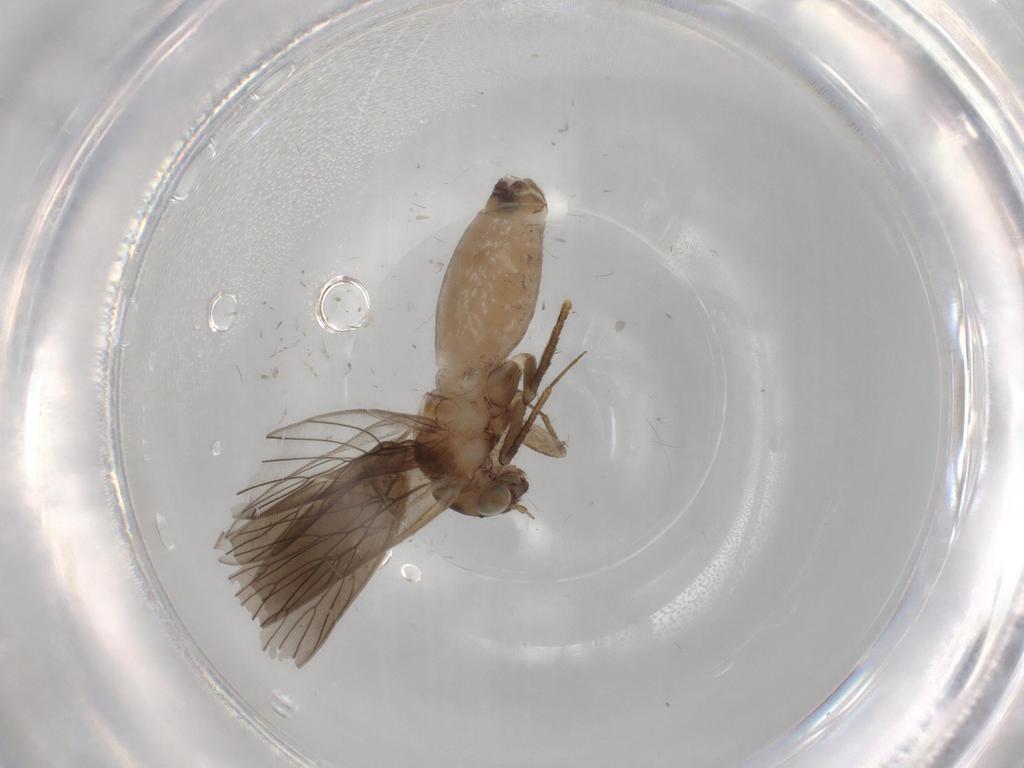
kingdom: Animalia
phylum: Arthropoda
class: Insecta
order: Psocodea
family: Lepidopsocidae
